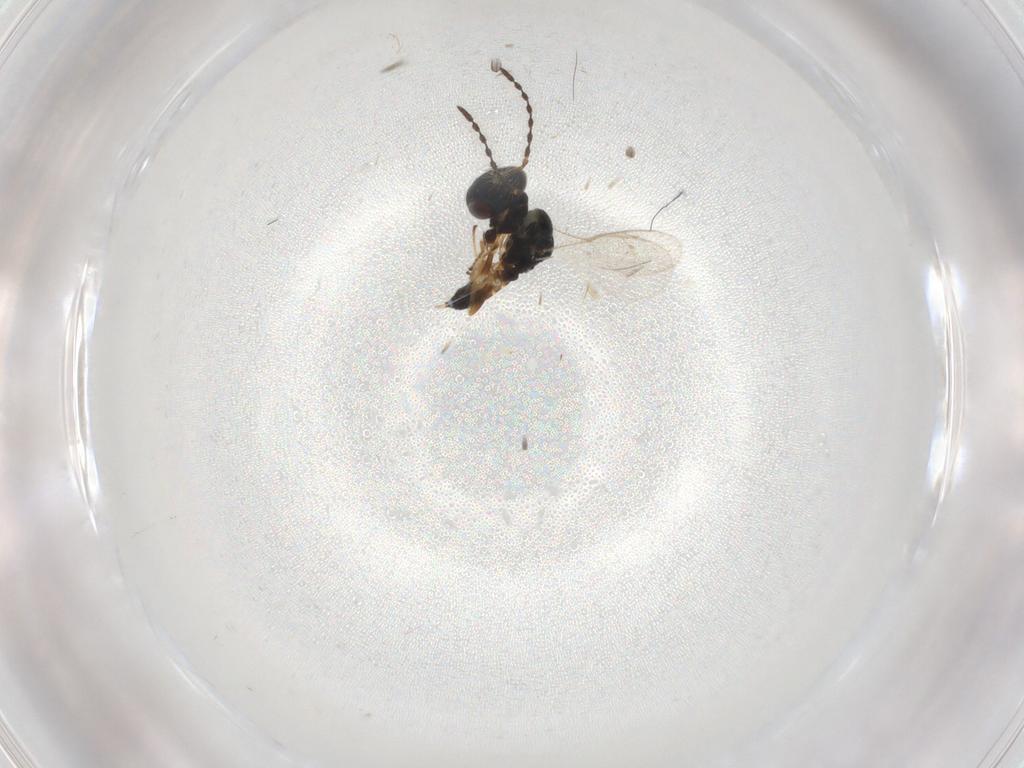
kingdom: Animalia
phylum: Arthropoda
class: Insecta
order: Hymenoptera
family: Pteromalidae
